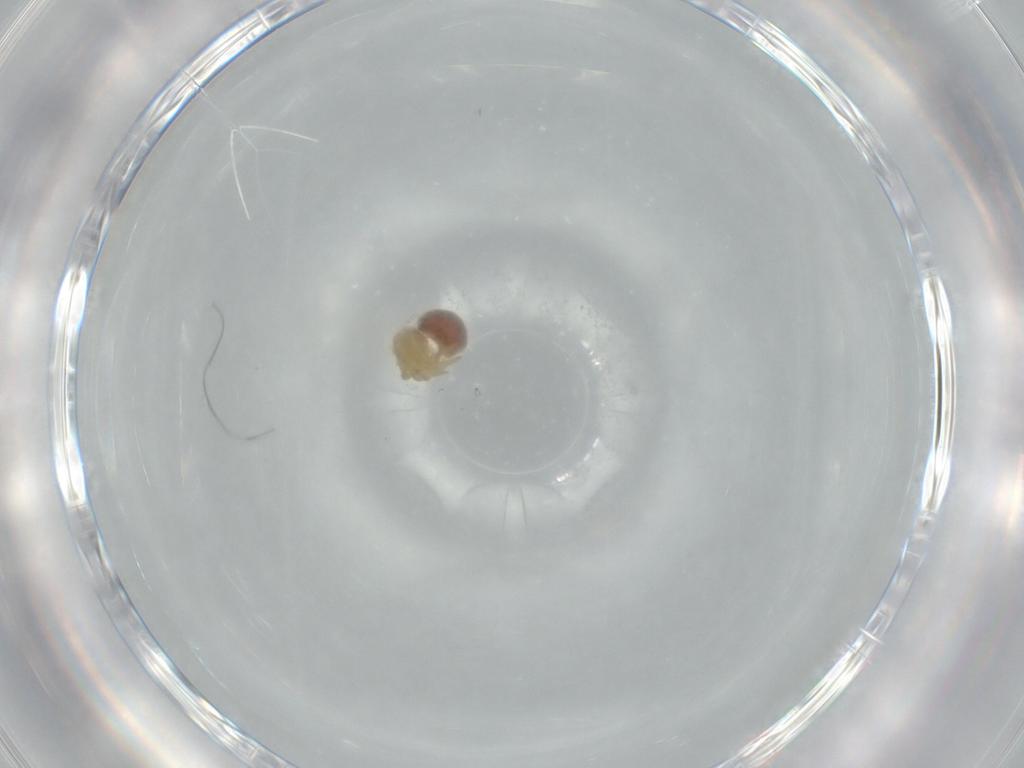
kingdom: Animalia
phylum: Arthropoda
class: Arachnida
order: Araneae
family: Pholcidae
